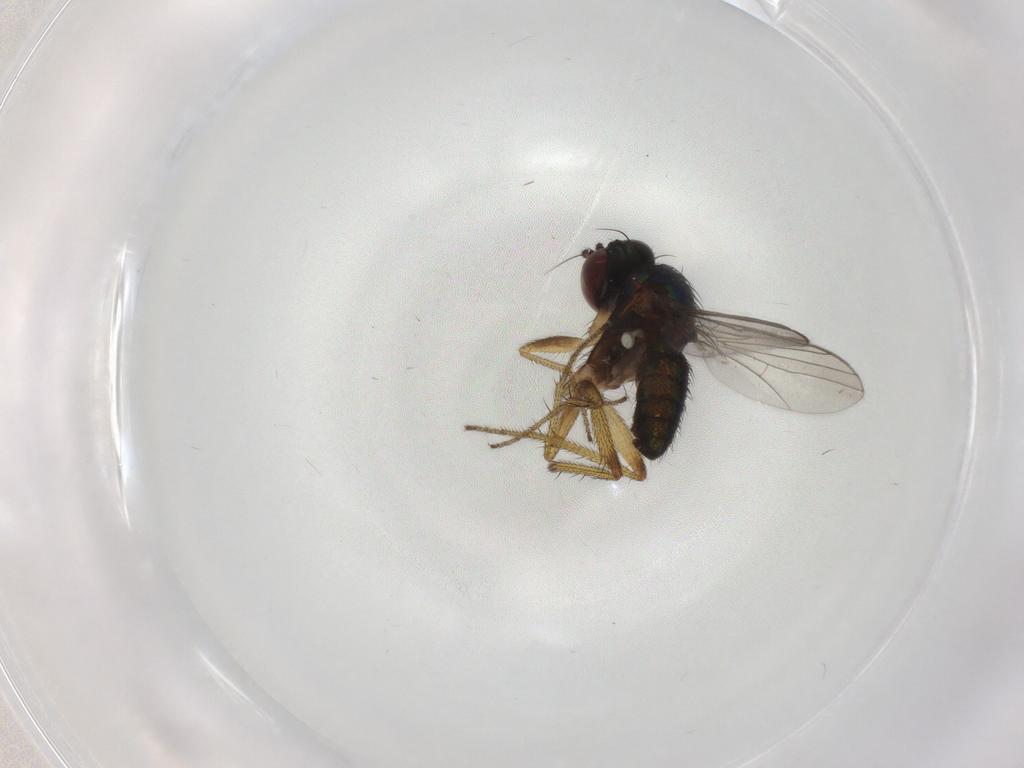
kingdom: Animalia
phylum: Arthropoda
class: Insecta
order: Diptera
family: Chironomidae
